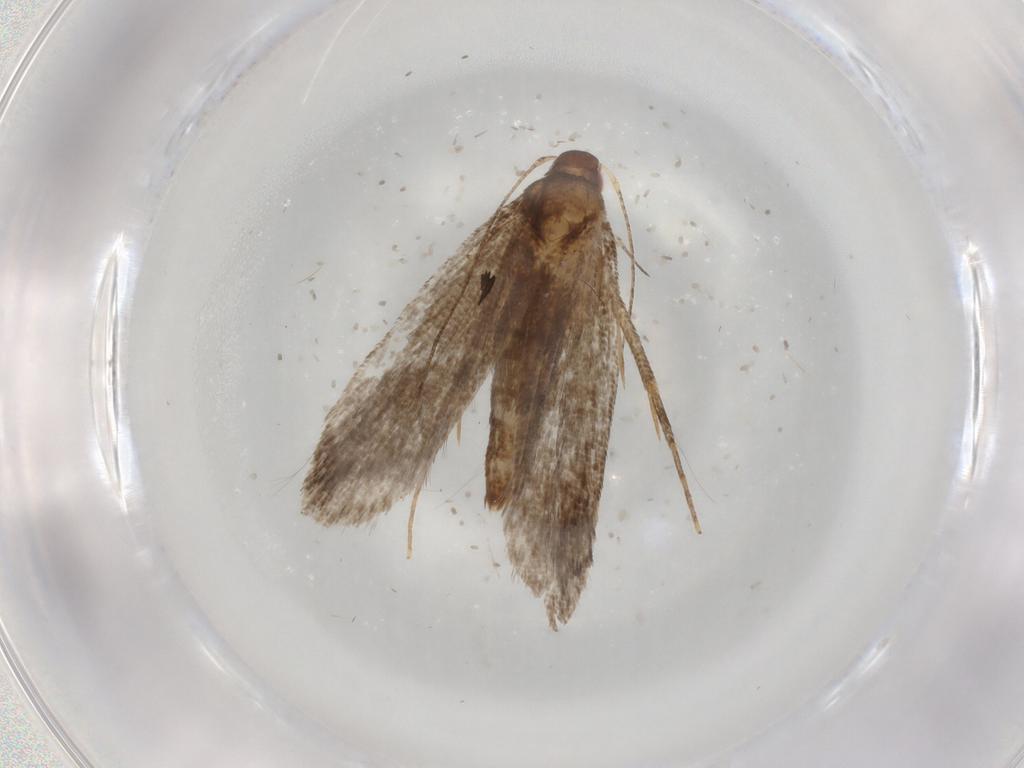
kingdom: Animalia
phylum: Arthropoda
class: Insecta
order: Lepidoptera
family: Gelechiidae
